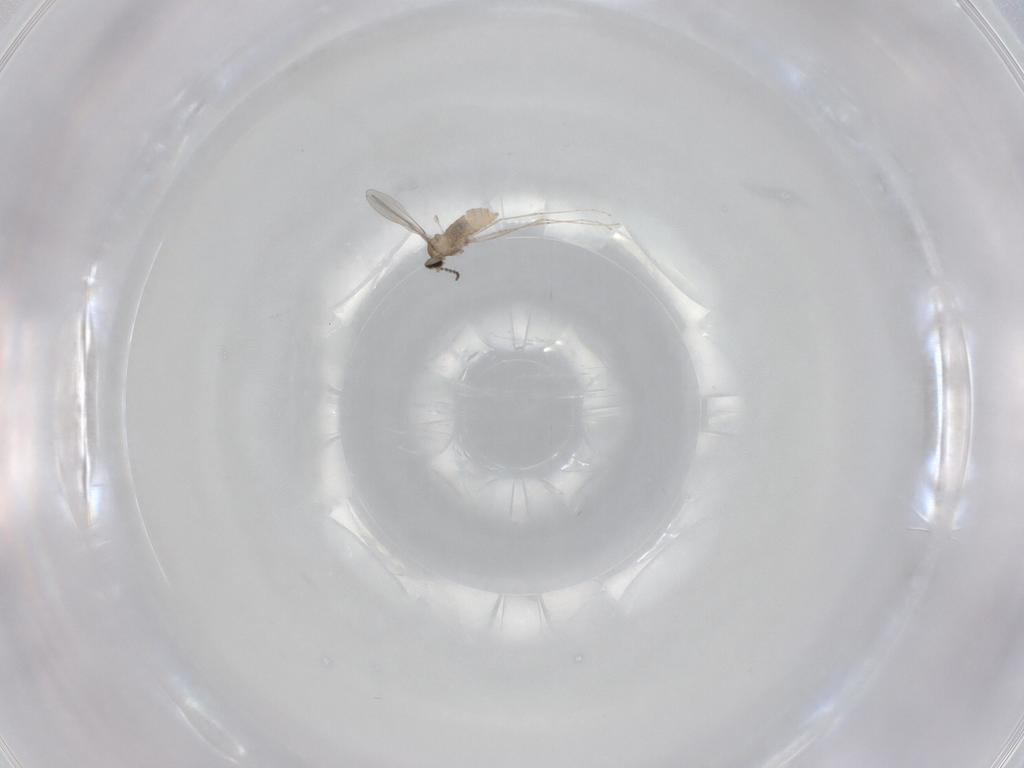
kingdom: Animalia
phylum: Arthropoda
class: Insecta
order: Diptera
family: Cecidomyiidae
